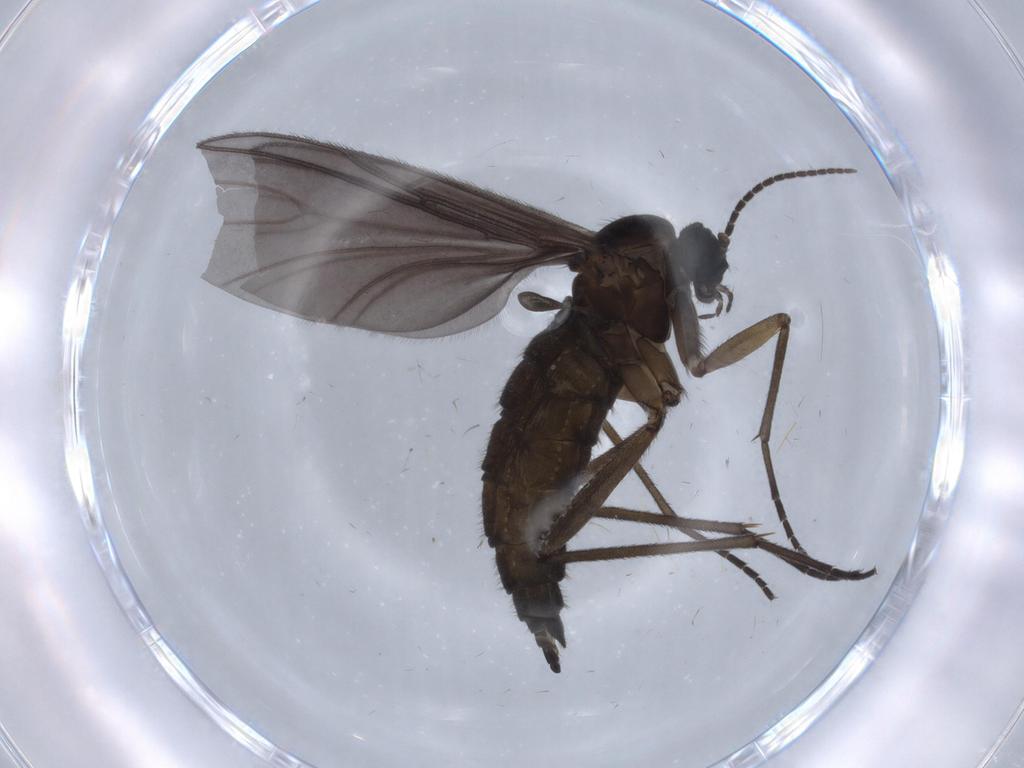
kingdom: Animalia
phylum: Arthropoda
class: Insecta
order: Diptera
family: Sciaridae
